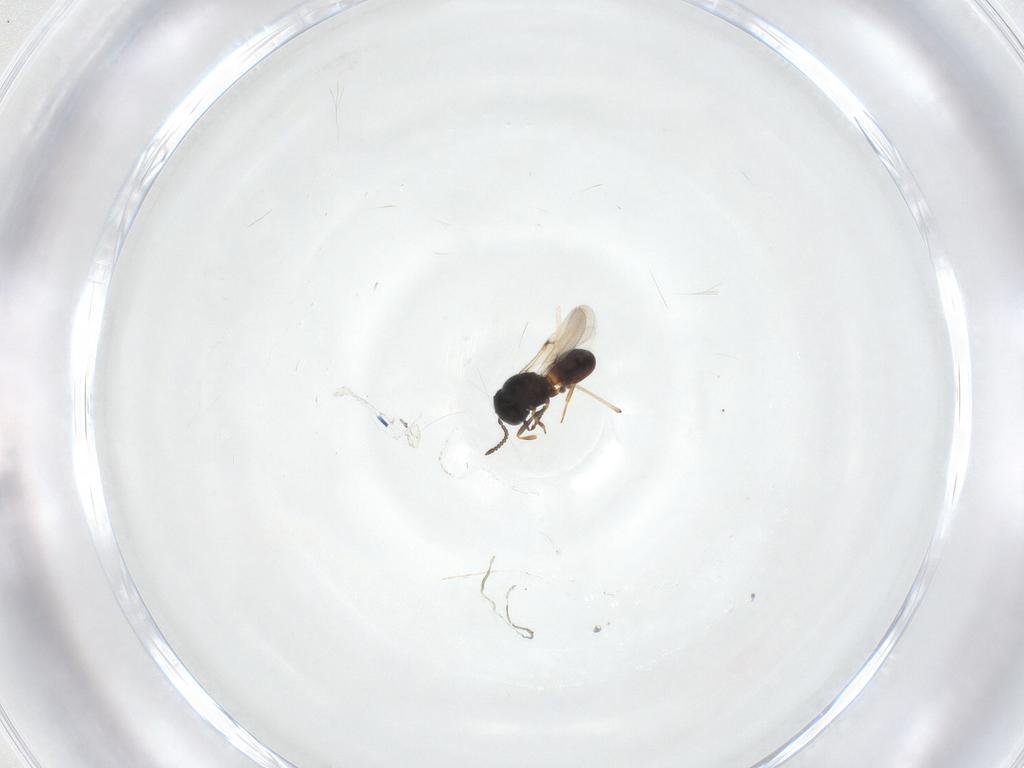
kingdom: Animalia
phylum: Arthropoda
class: Arachnida
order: Araneae
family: Pholcidae
